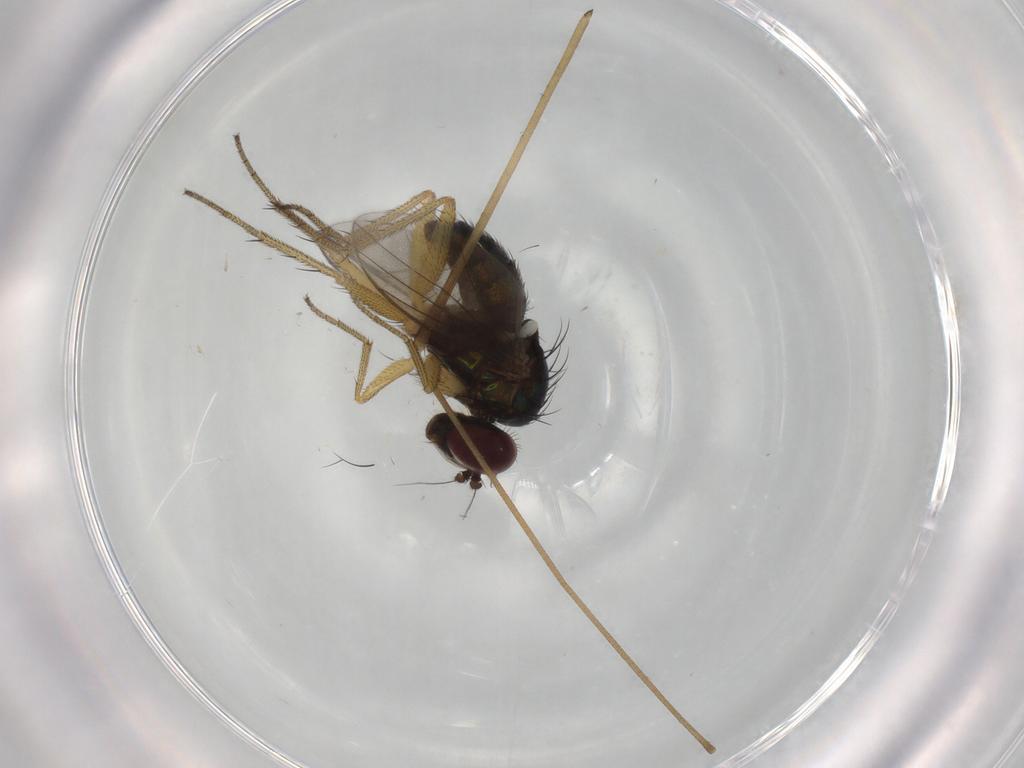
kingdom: Animalia
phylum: Arthropoda
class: Insecta
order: Diptera
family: Limoniidae
